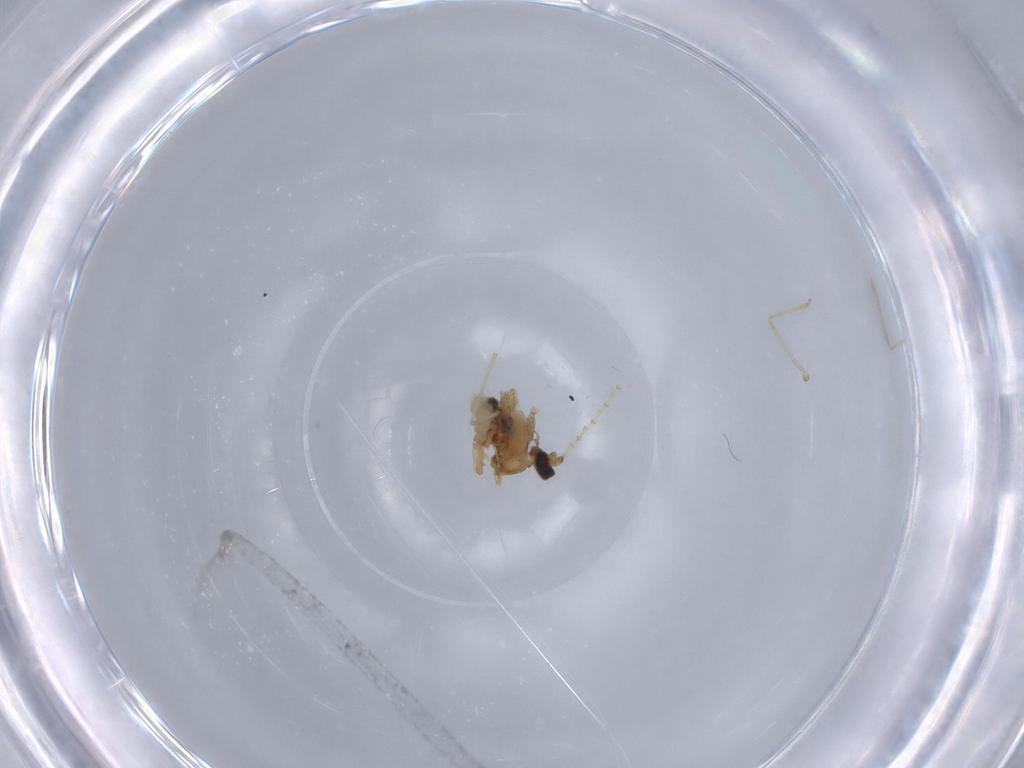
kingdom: Animalia
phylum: Arthropoda
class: Insecta
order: Diptera
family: Cecidomyiidae
